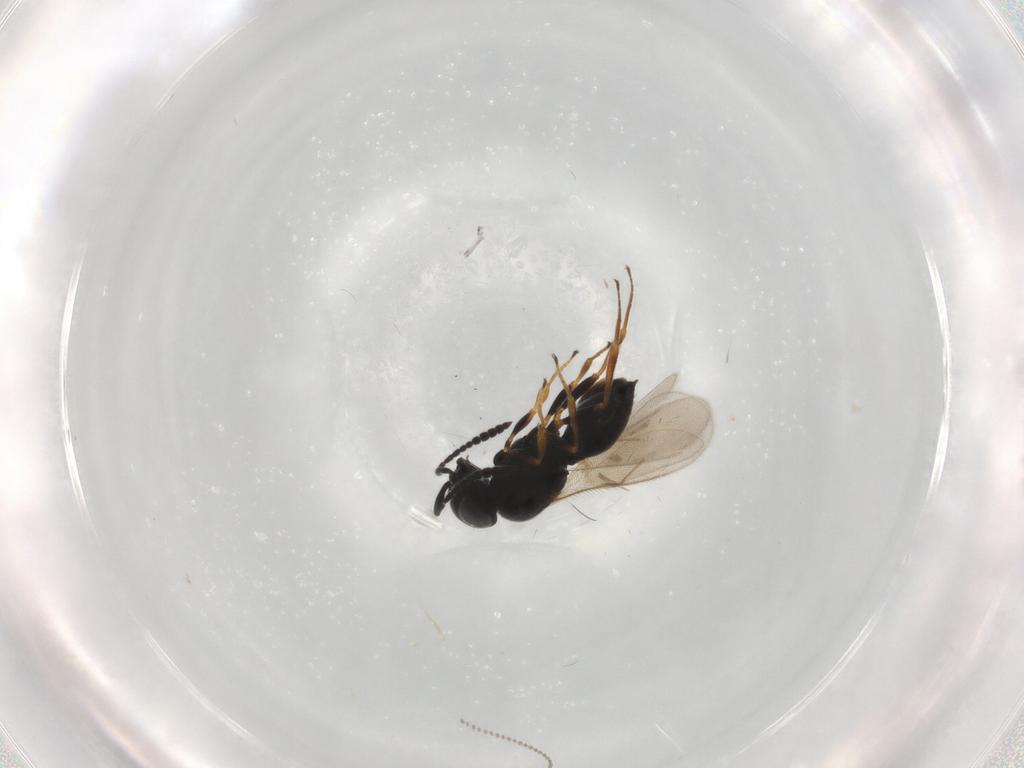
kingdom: Animalia
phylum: Arthropoda
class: Insecta
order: Hymenoptera
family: Scelionidae
